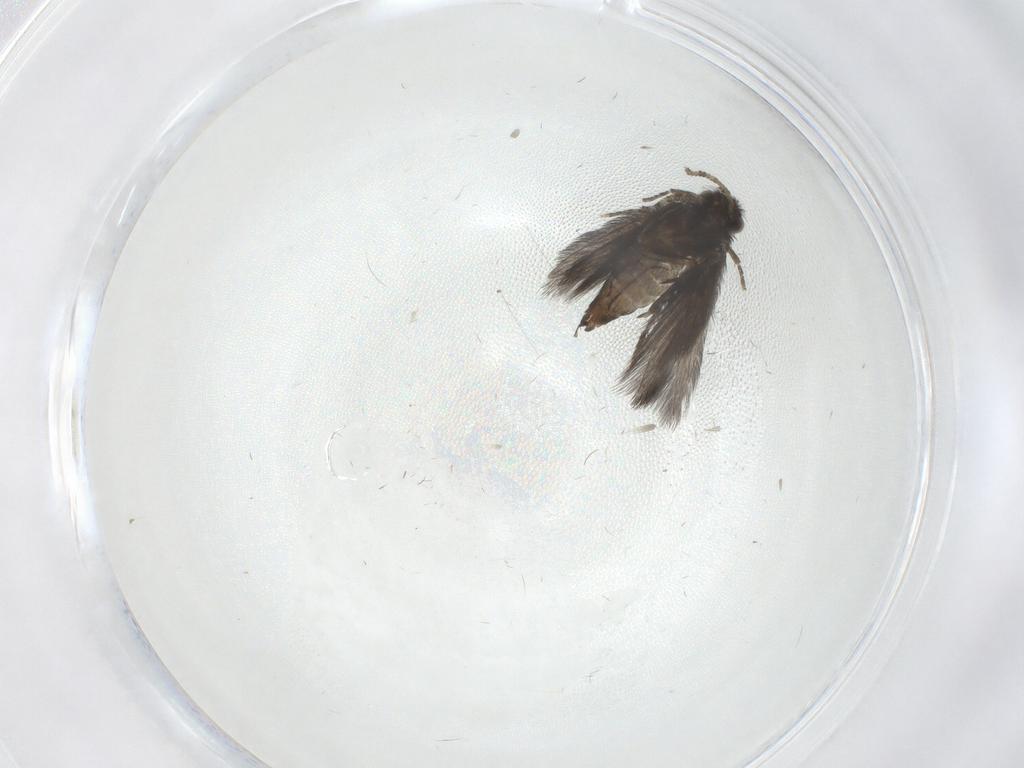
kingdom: Animalia
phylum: Arthropoda
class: Insecta
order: Trichoptera
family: Hydroptilidae
